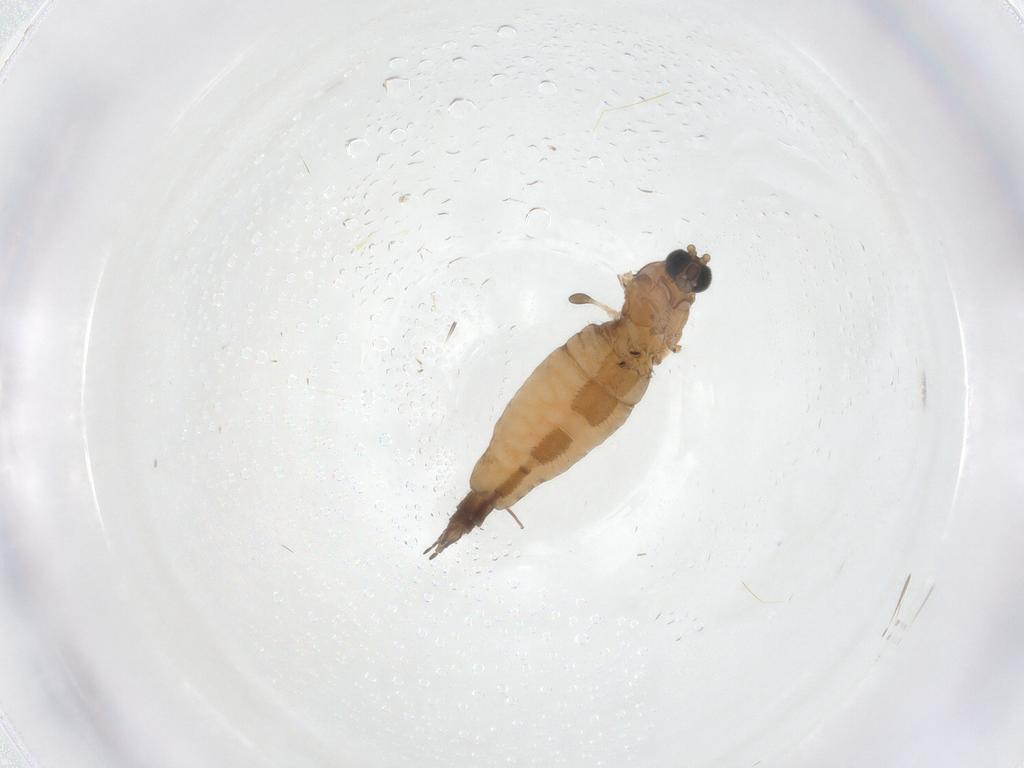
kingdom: Animalia
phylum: Arthropoda
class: Insecta
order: Diptera
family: Sciaridae
